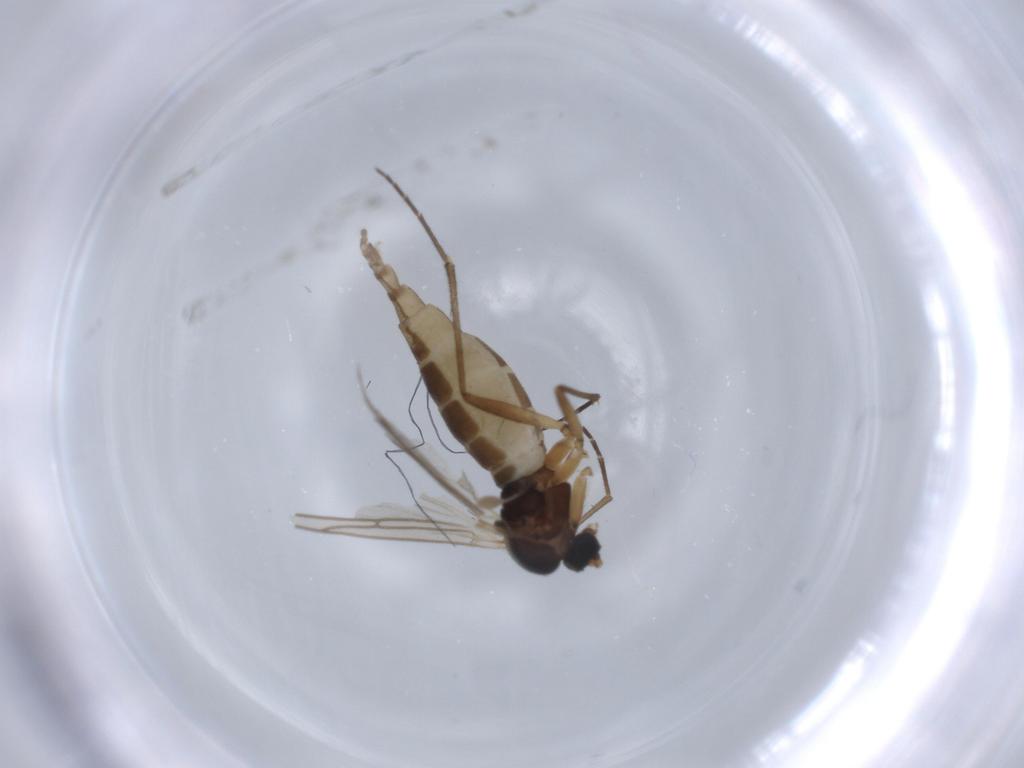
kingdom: Animalia
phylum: Arthropoda
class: Insecta
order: Diptera
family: Sciaridae
